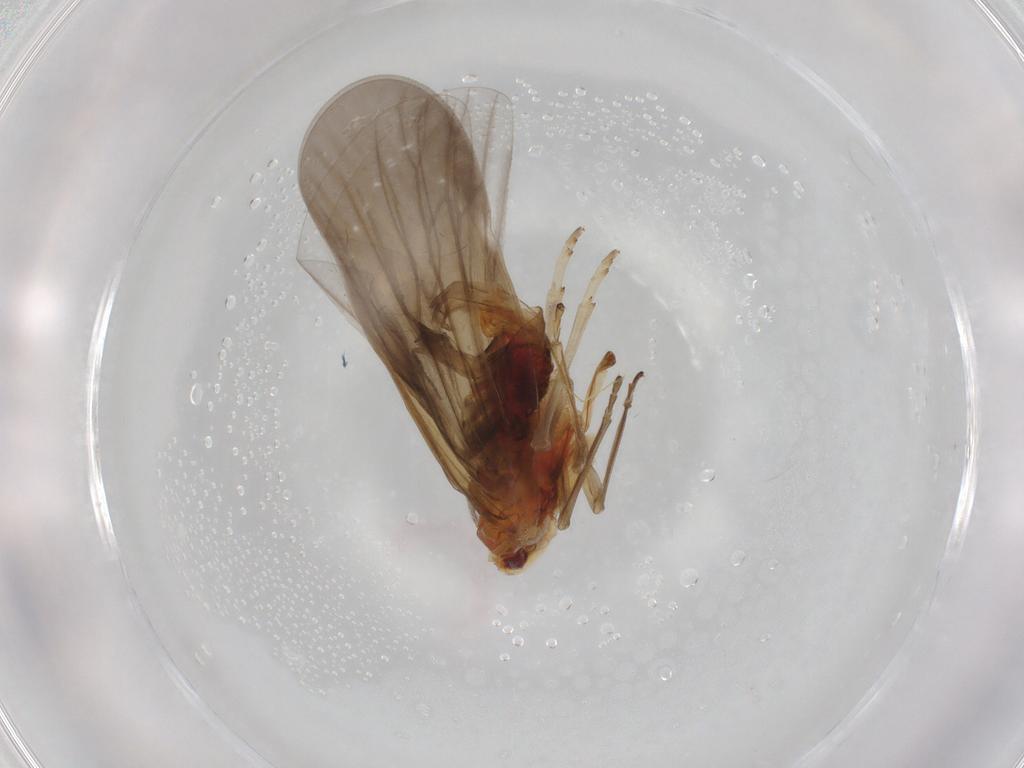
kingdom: Animalia
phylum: Arthropoda
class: Insecta
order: Hemiptera
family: Derbidae
